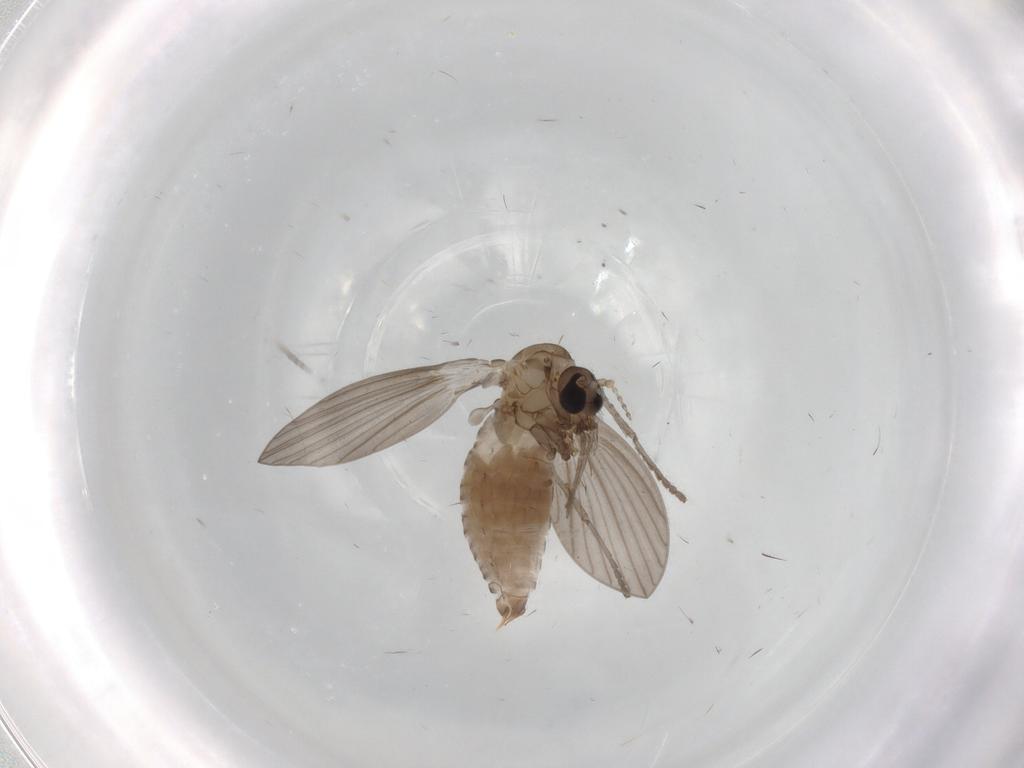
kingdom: Animalia
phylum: Arthropoda
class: Insecta
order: Diptera
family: Psychodidae
